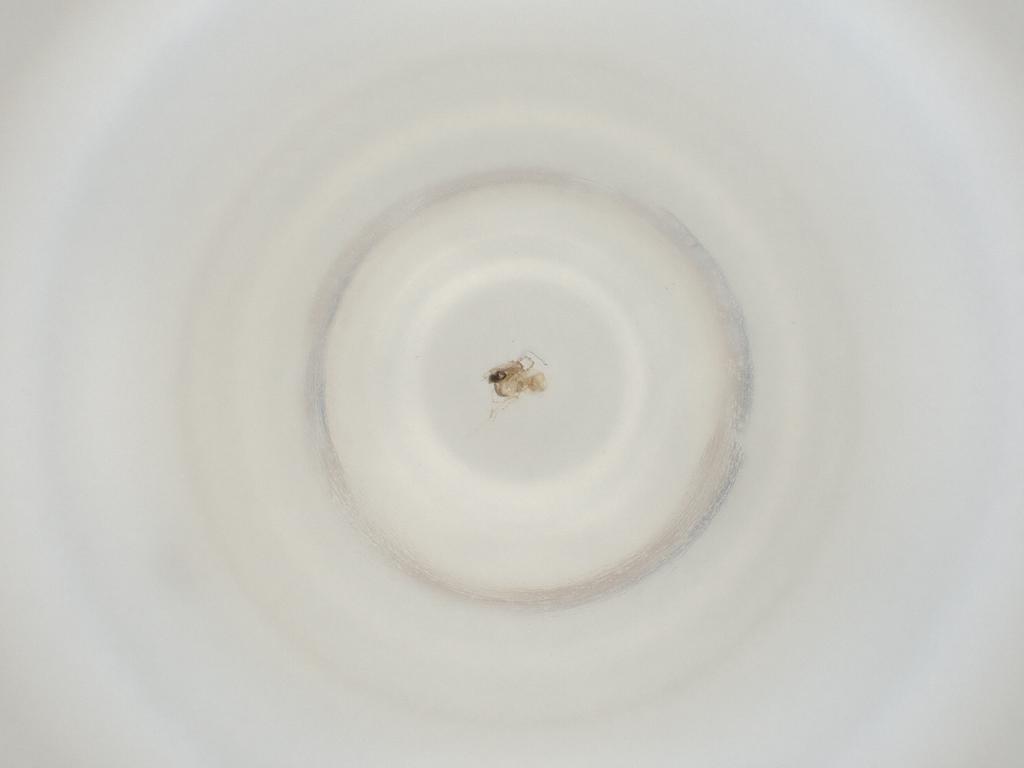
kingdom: Animalia
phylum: Arthropoda
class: Insecta
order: Diptera
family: Cecidomyiidae
